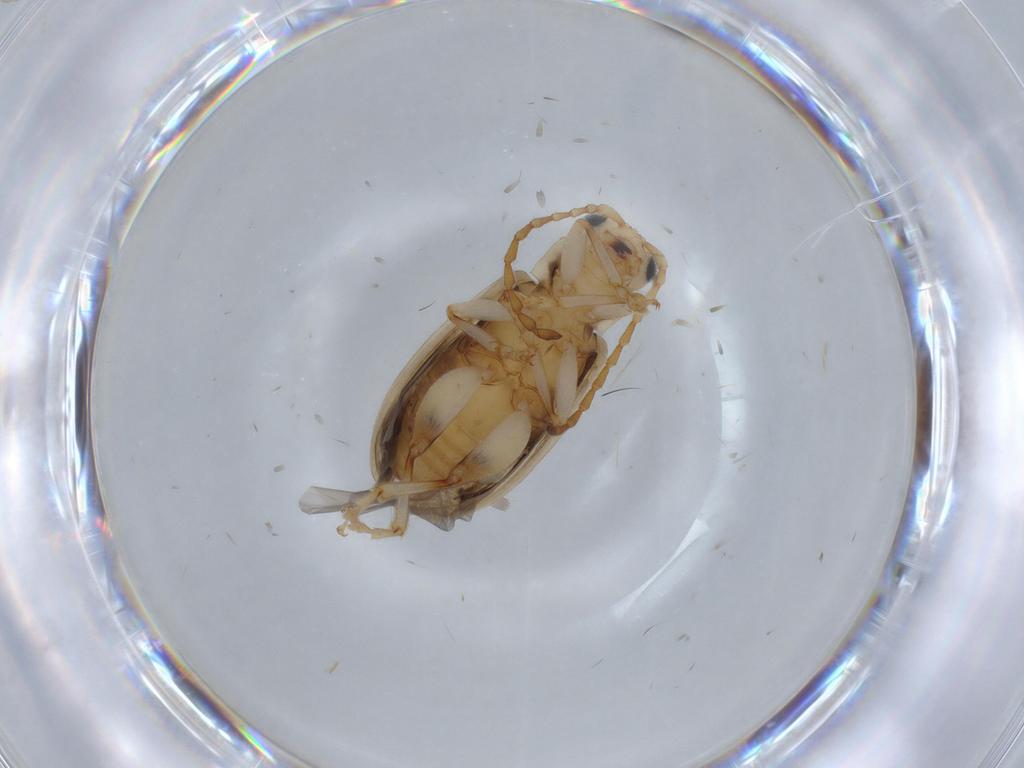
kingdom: Animalia
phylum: Arthropoda
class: Insecta
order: Coleoptera
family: Chrysomelidae
